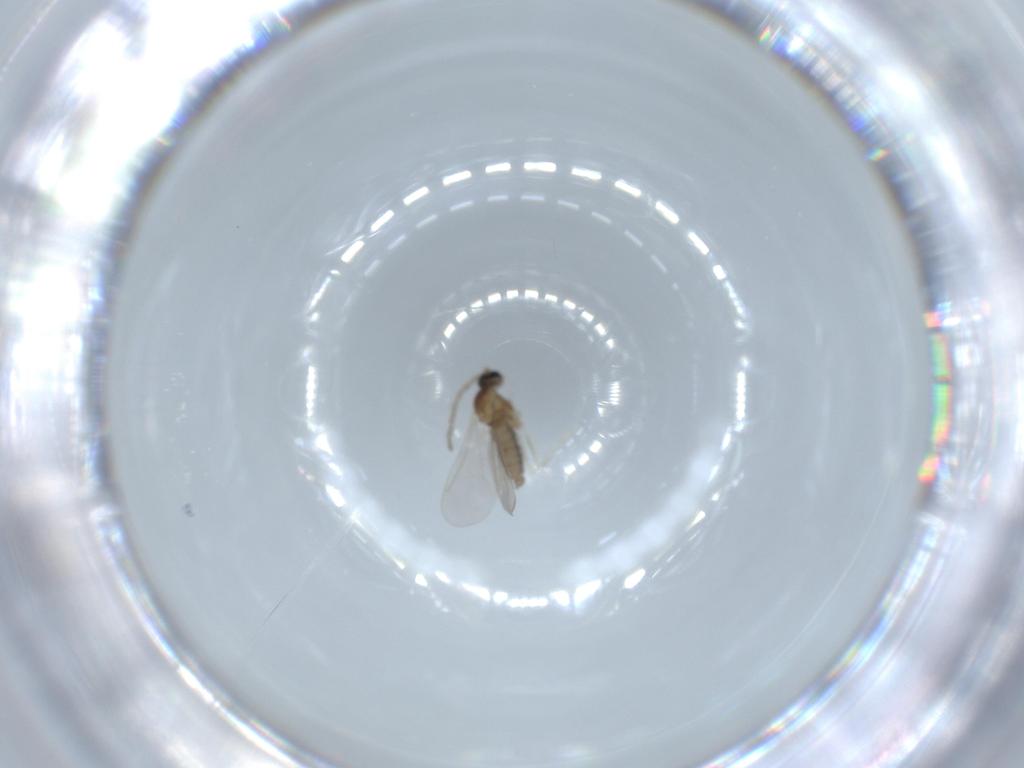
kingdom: Animalia
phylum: Arthropoda
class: Insecta
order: Diptera
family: Cecidomyiidae
